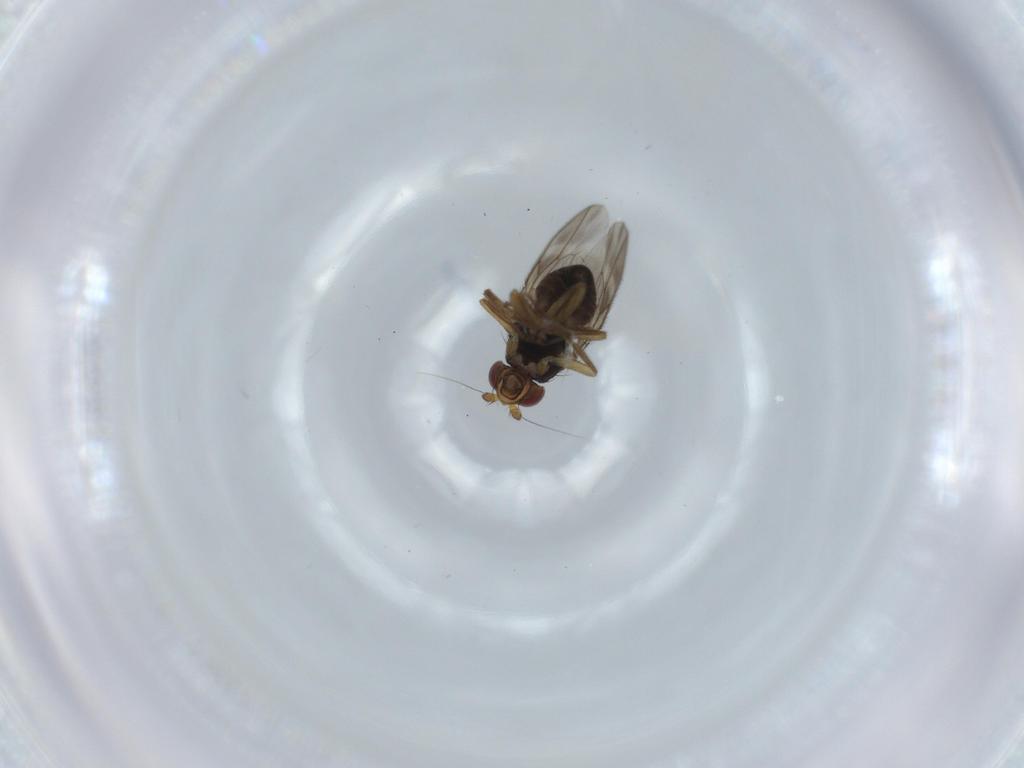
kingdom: Animalia
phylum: Arthropoda
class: Insecta
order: Diptera
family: Sphaeroceridae
